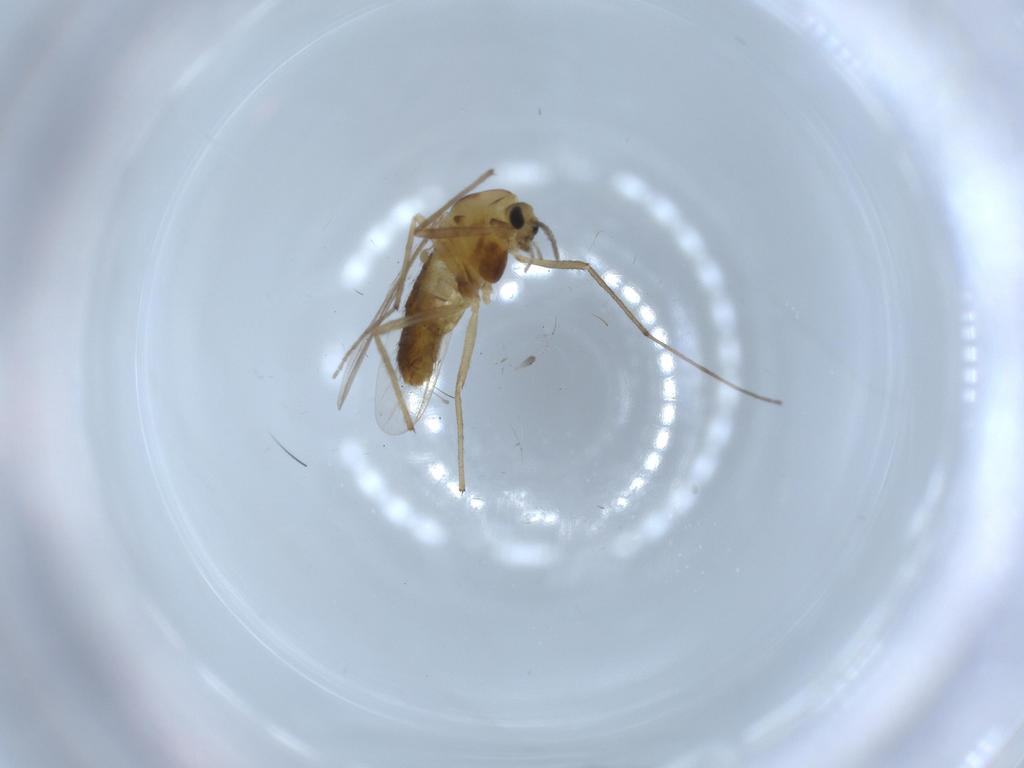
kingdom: Animalia
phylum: Arthropoda
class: Insecta
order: Diptera
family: Chironomidae
